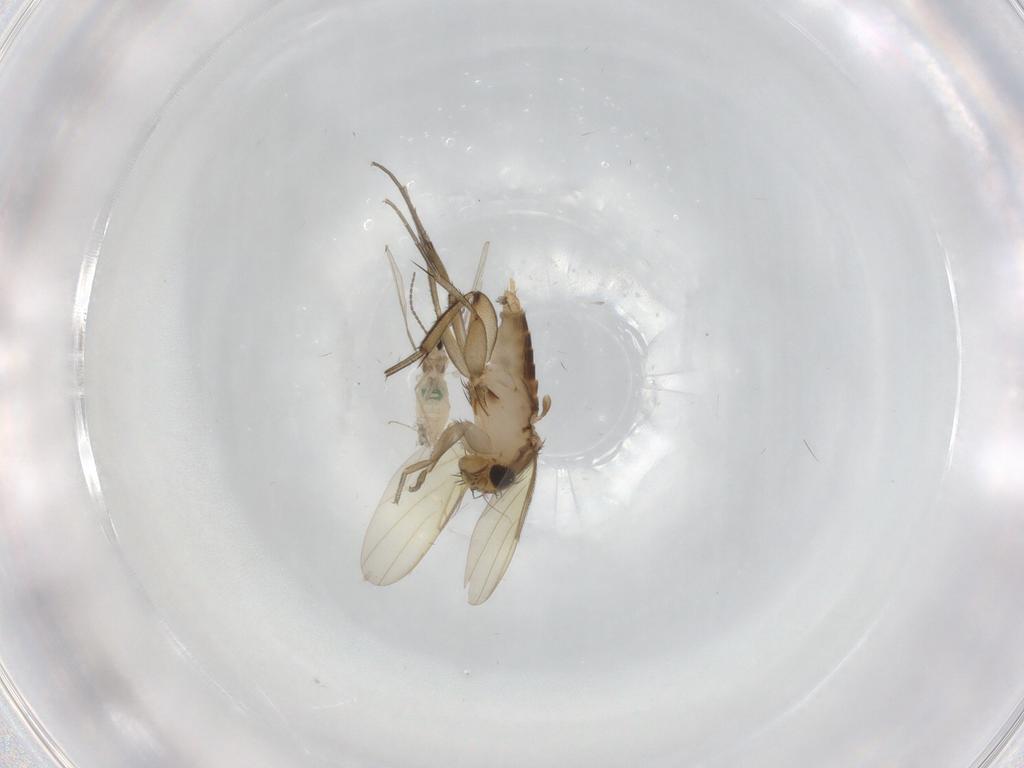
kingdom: Animalia
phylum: Arthropoda
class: Insecta
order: Diptera
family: Phoridae
